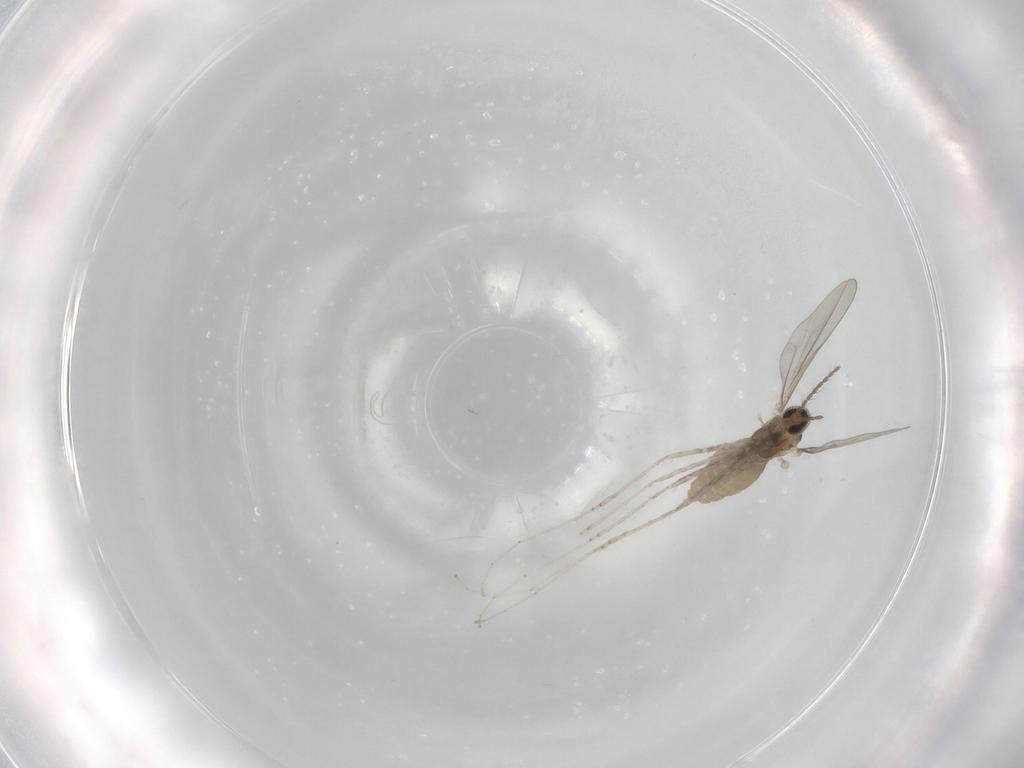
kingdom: Animalia
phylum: Arthropoda
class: Insecta
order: Diptera
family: Cecidomyiidae
